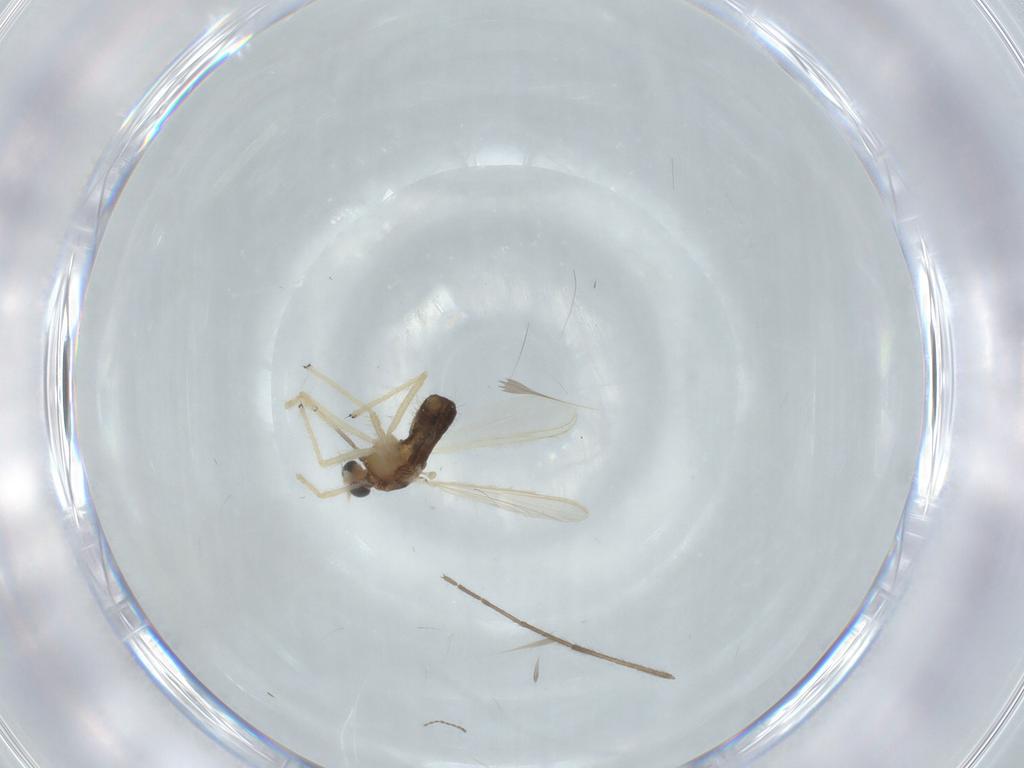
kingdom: Animalia
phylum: Arthropoda
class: Insecta
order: Diptera
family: Chironomidae
